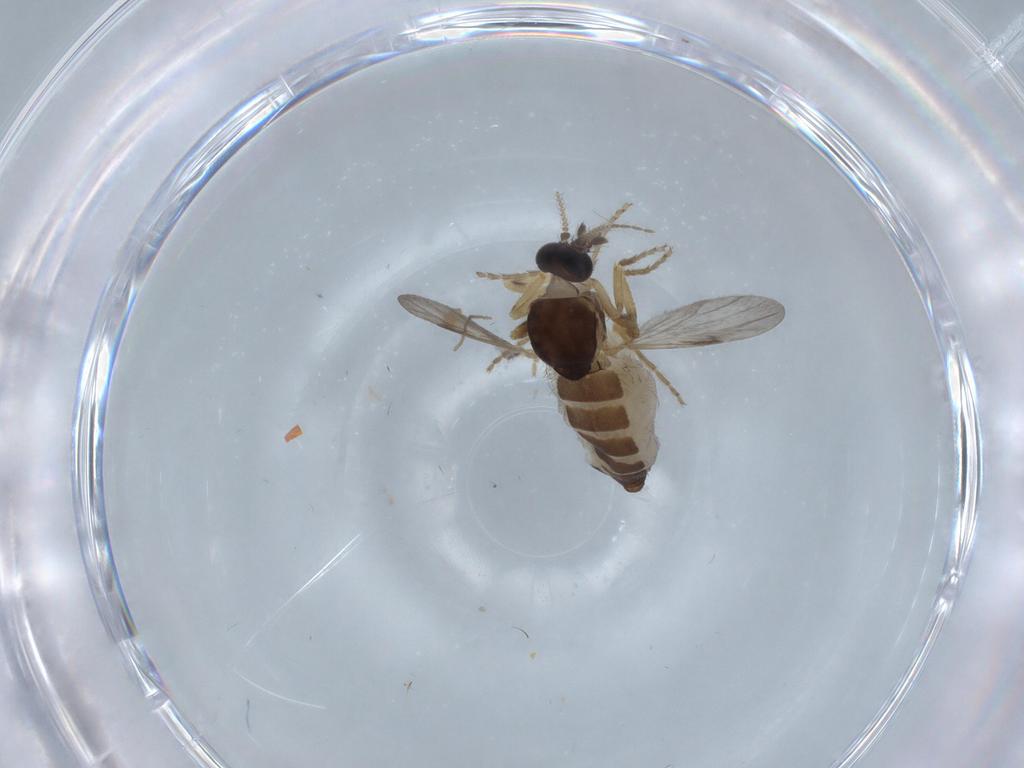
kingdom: Animalia
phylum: Arthropoda
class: Insecta
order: Diptera
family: Ceratopogonidae
